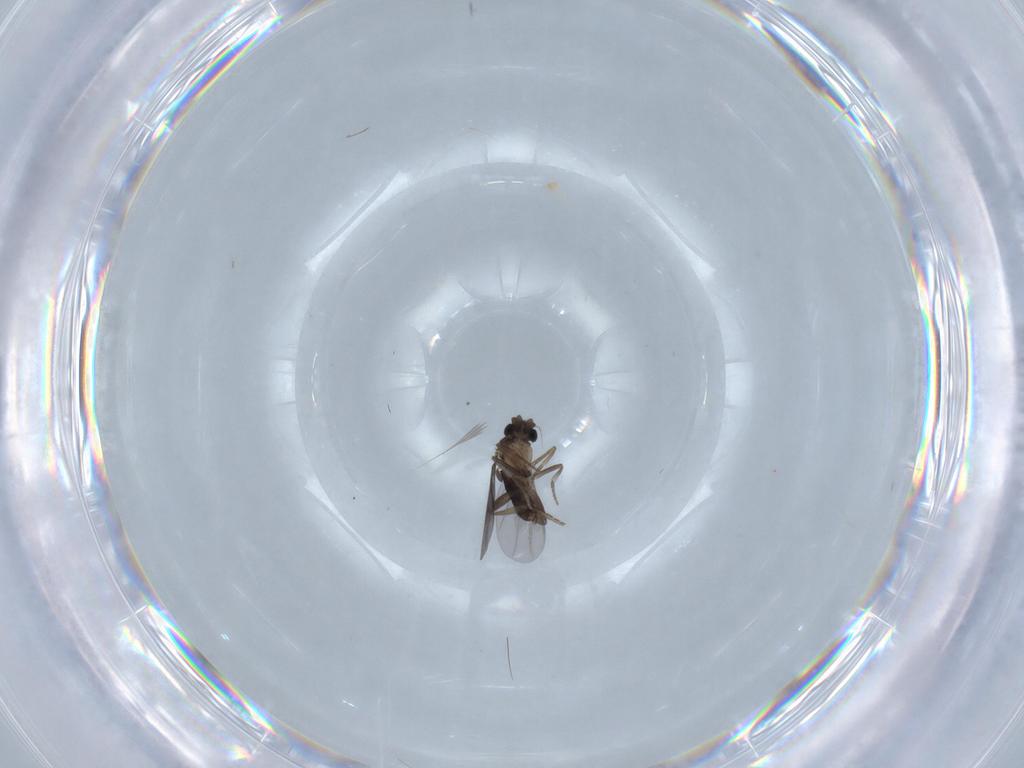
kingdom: Animalia
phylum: Arthropoda
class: Insecta
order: Diptera
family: Chironomidae
